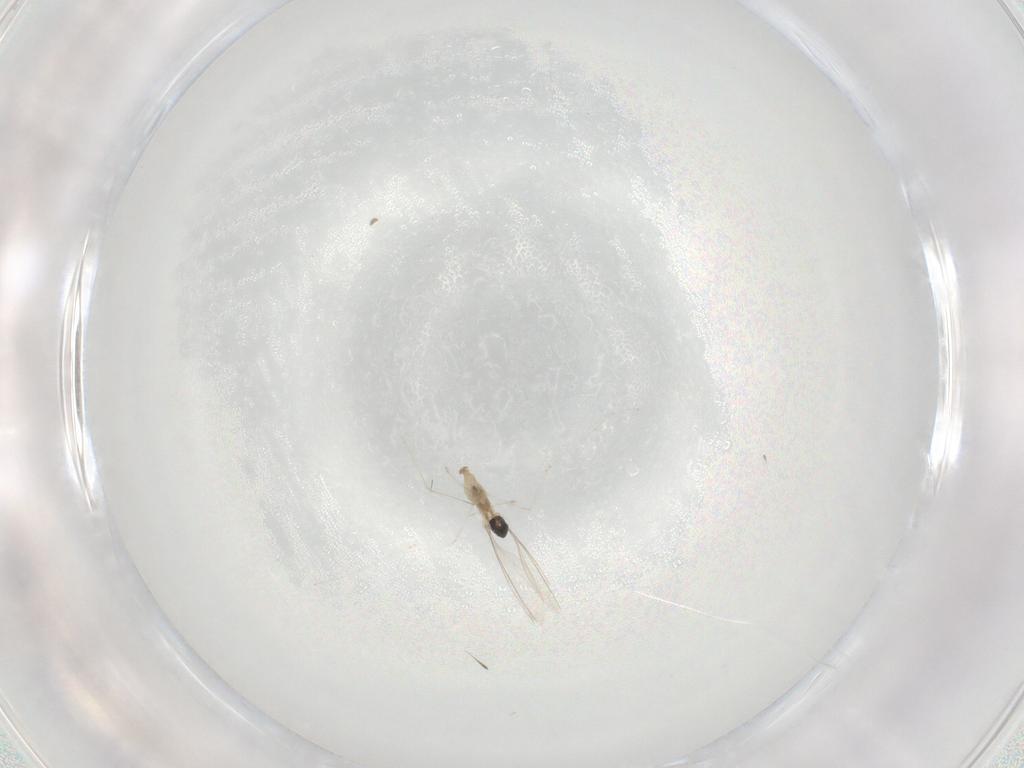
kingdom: Animalia
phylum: Arthropoda
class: Insecta
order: Diptera
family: Cecidomyiidae
